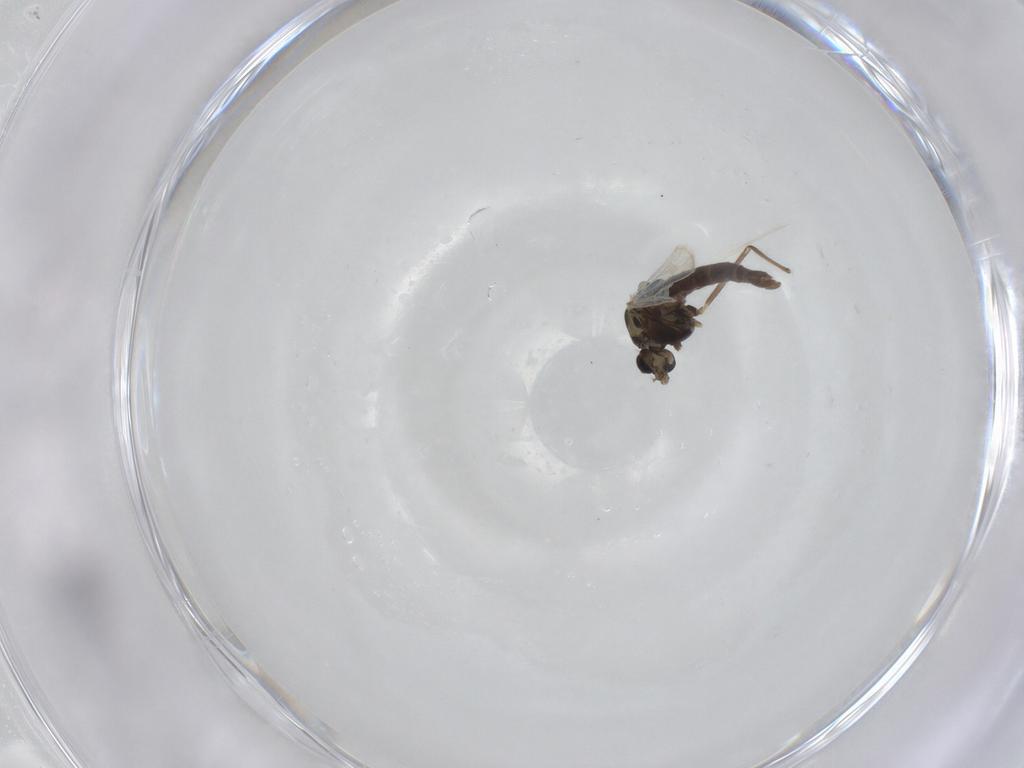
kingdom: Animalia
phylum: Arthropoda
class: Insecta
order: Diptera
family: Chironomidae
